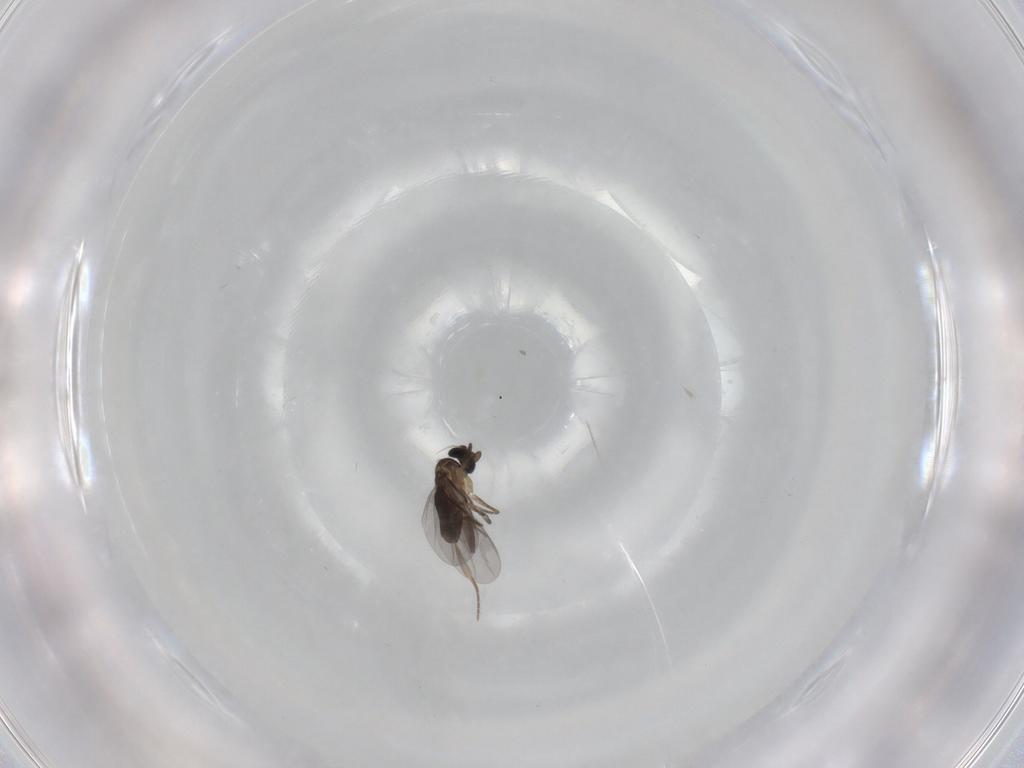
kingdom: Animalia
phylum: Arthropoda
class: Insecta
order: Diptera
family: Phoridae
